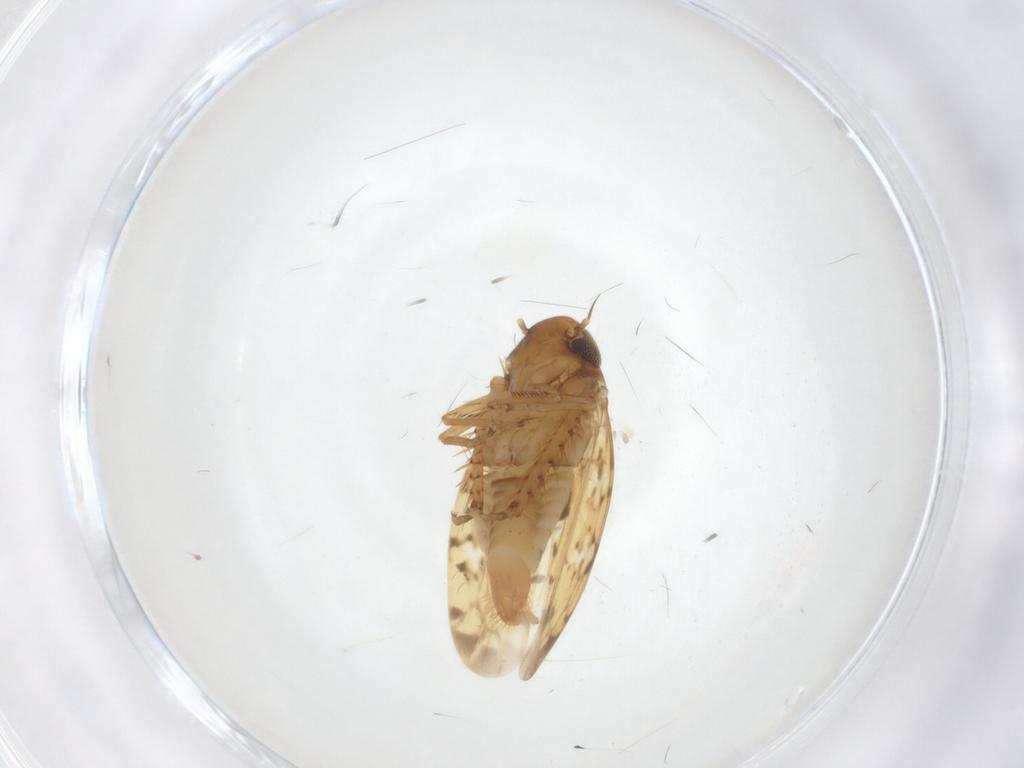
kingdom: Animalia
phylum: Arthropoda
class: Insecta
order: Hemiptera
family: Cicadellidae
